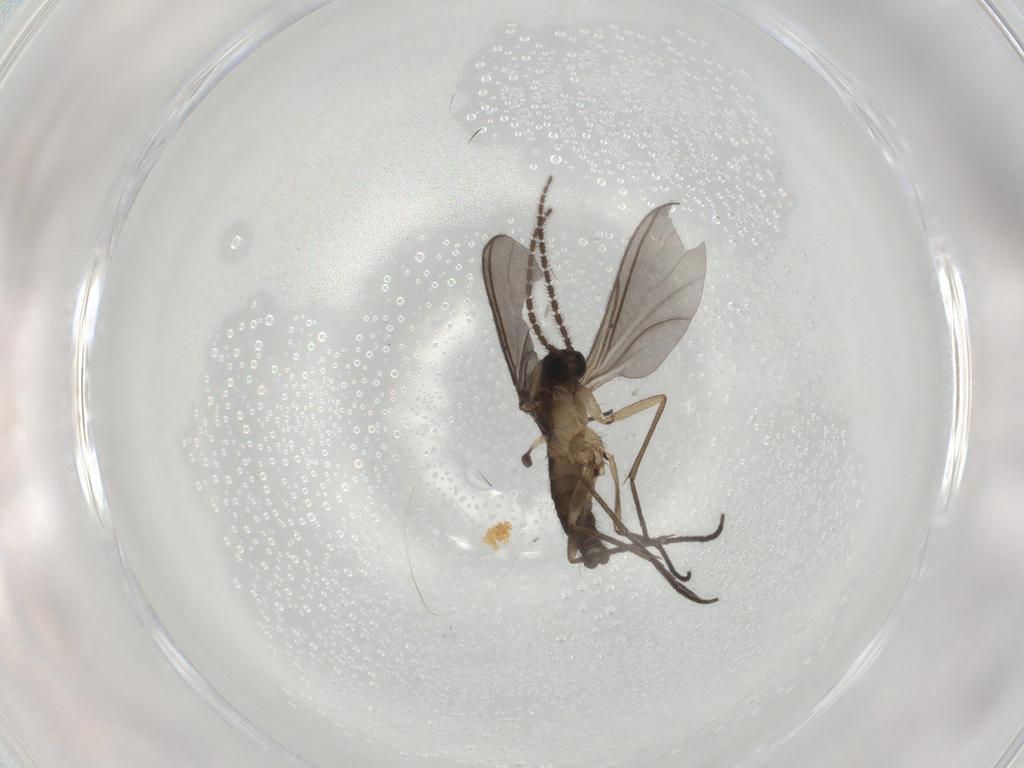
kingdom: Animalia
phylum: Arthropoda
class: Insecta
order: Diptera
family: Sciaridae
